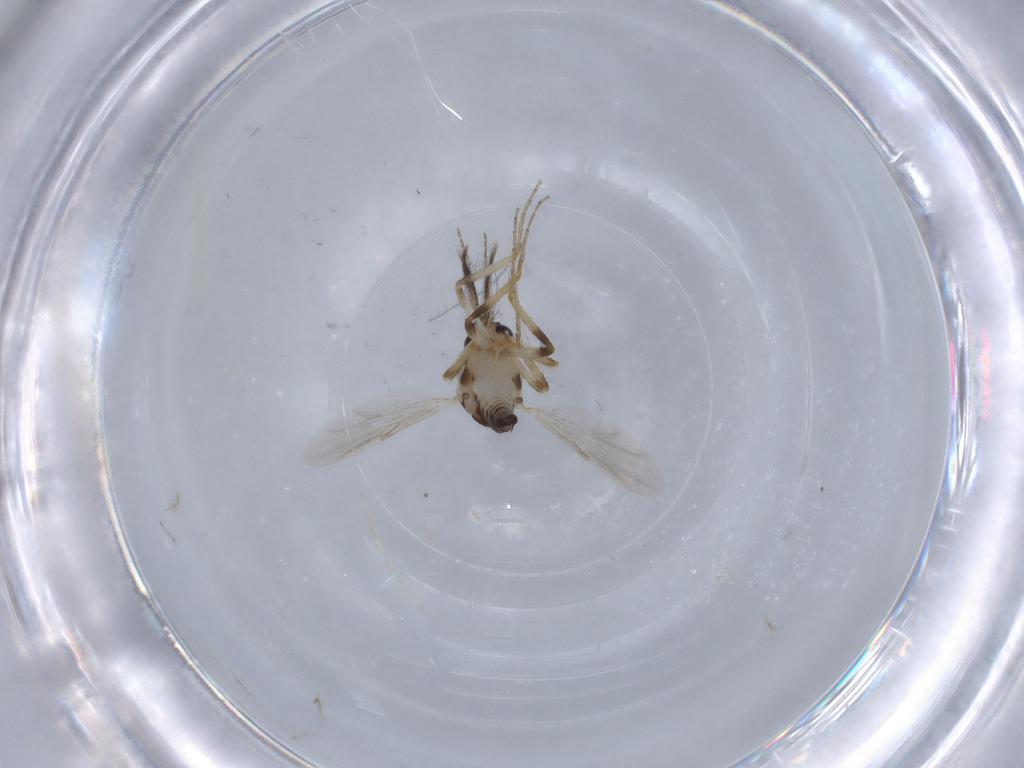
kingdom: Animalia
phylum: Arthropoda
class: Insecta
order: Diptera
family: Ceratopogonidae
